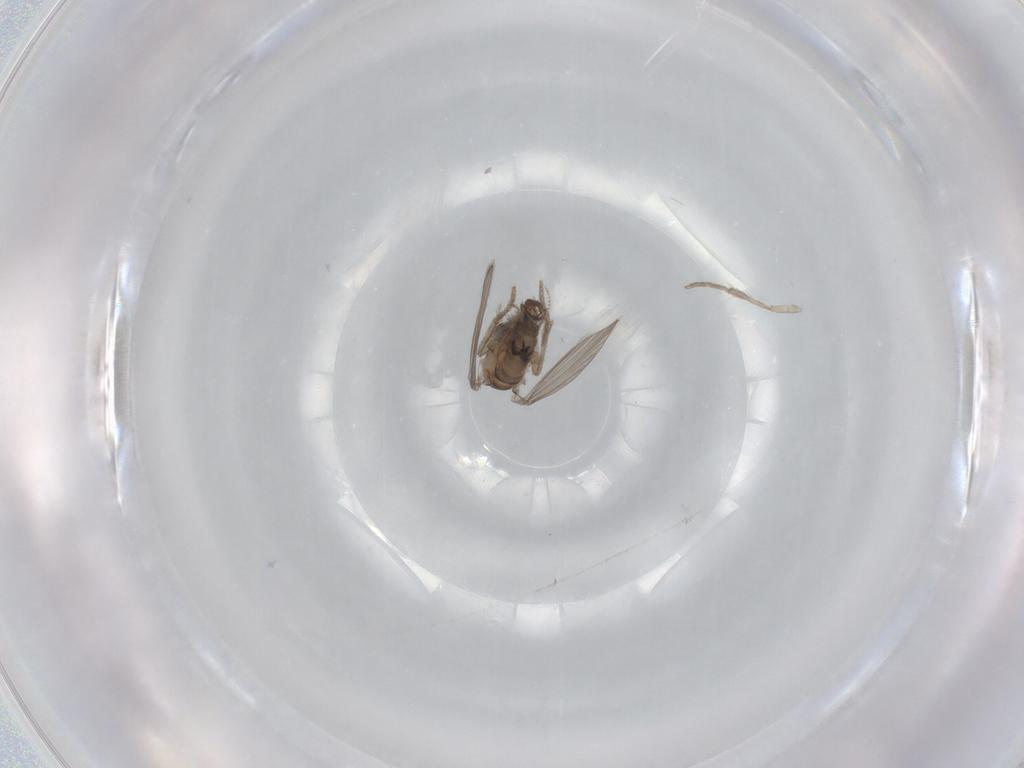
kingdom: Animalia
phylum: Arthropoda
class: Insecta
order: Diptera
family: Psychodidae
